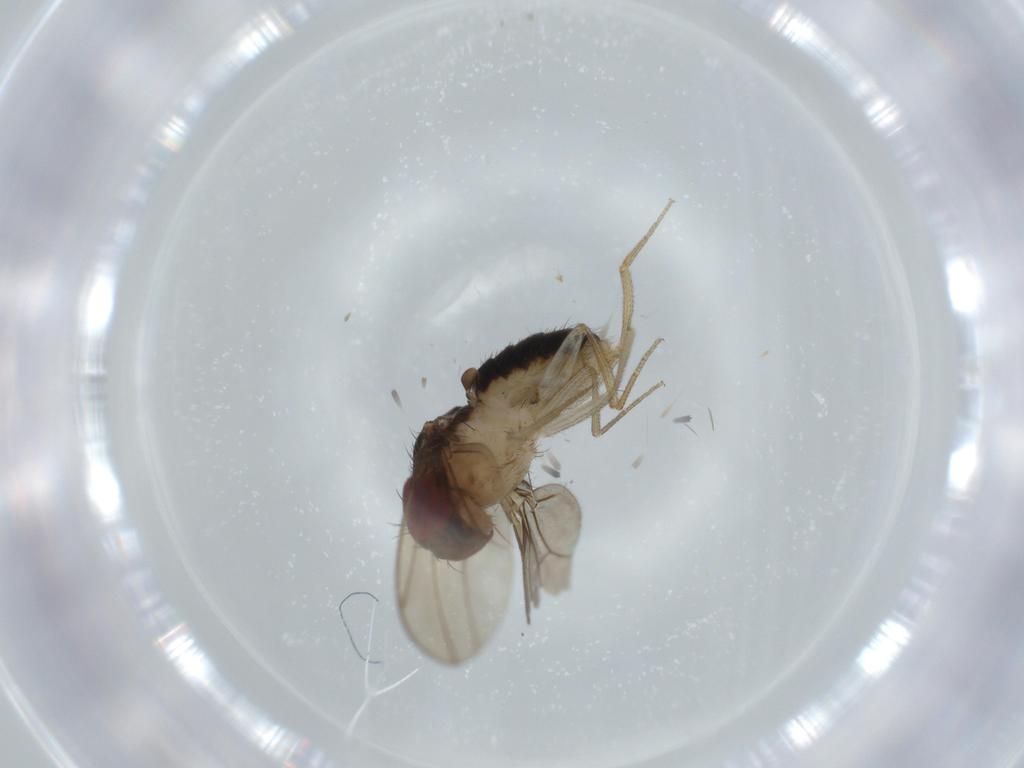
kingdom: Animalia
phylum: Arthropoda
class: Insecta
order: Diptera
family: Drosophilidae
